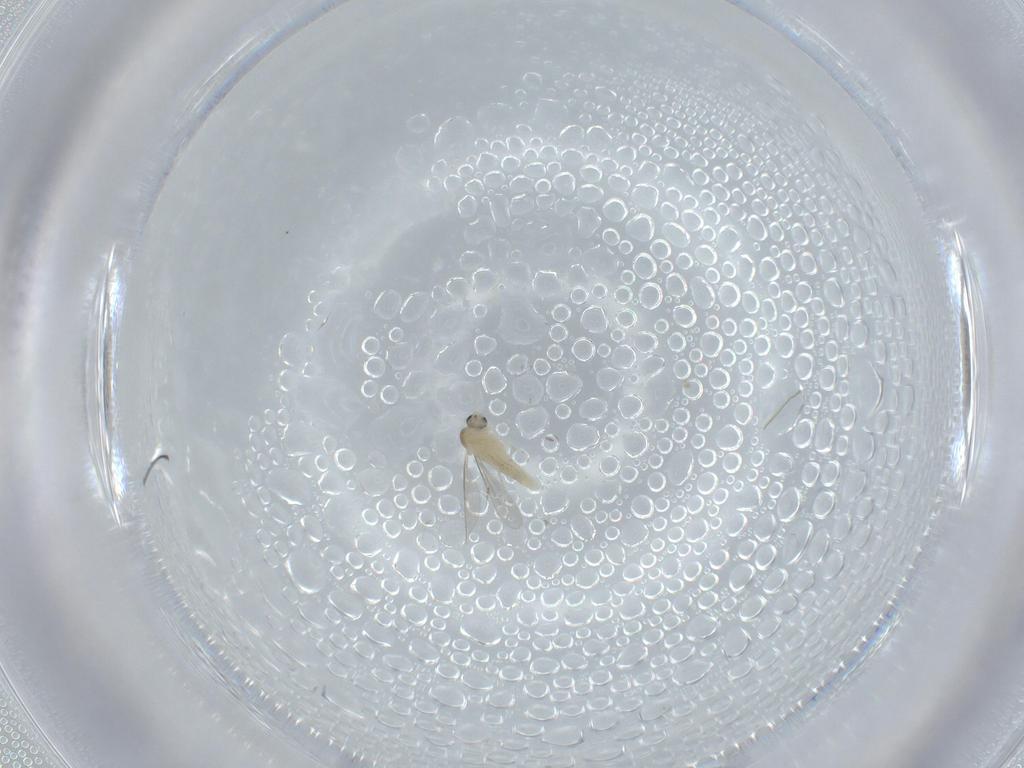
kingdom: Animalia
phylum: Arthropoda
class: Insecta
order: Diptera
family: Cecidomyiidae
